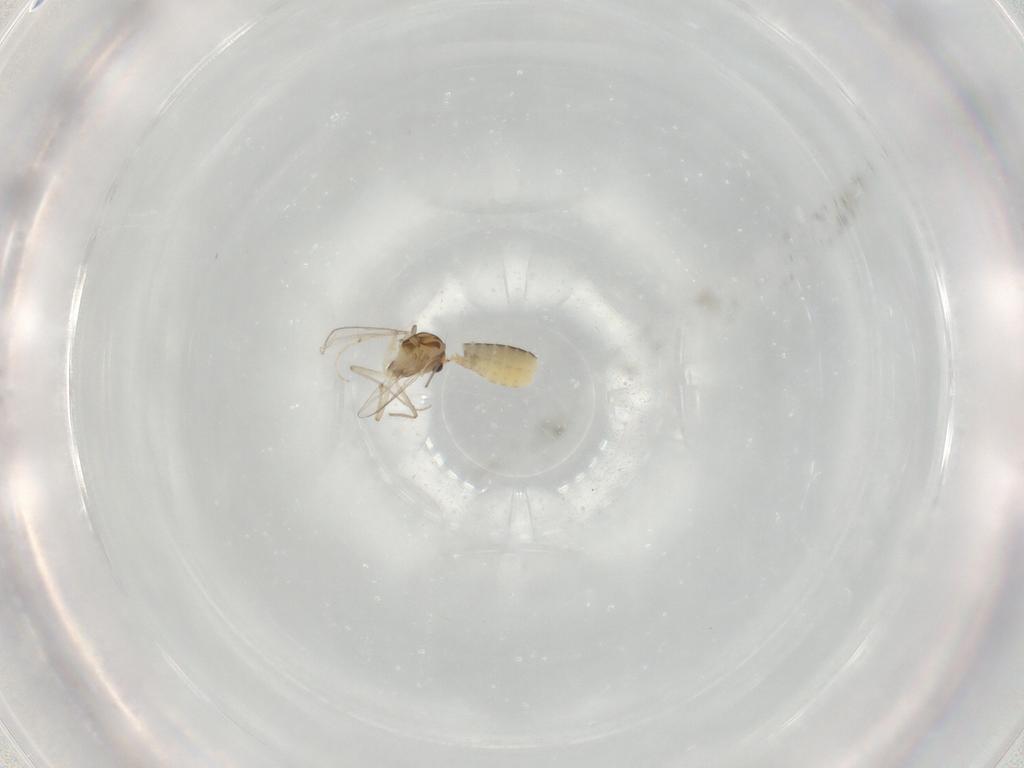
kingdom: Animalia
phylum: Arthropoda
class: Insecta
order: Diptera
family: Chironomidae
